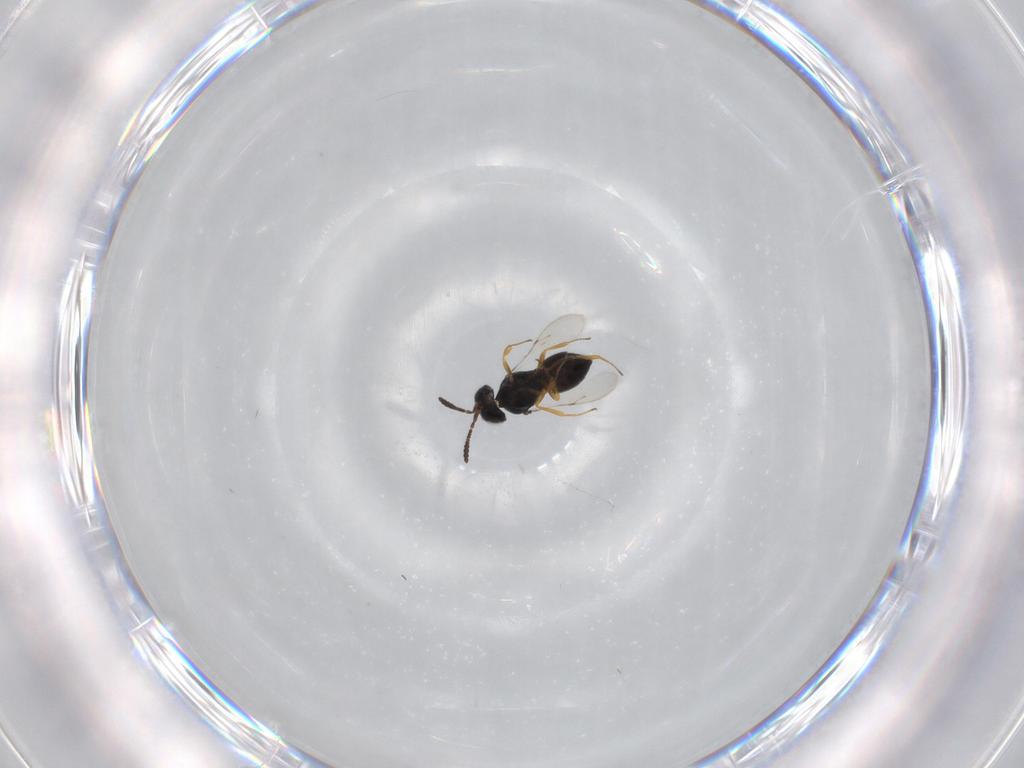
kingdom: Animalia
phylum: Arthropoda
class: Insecta
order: Hymenoptera
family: Scelionidae
